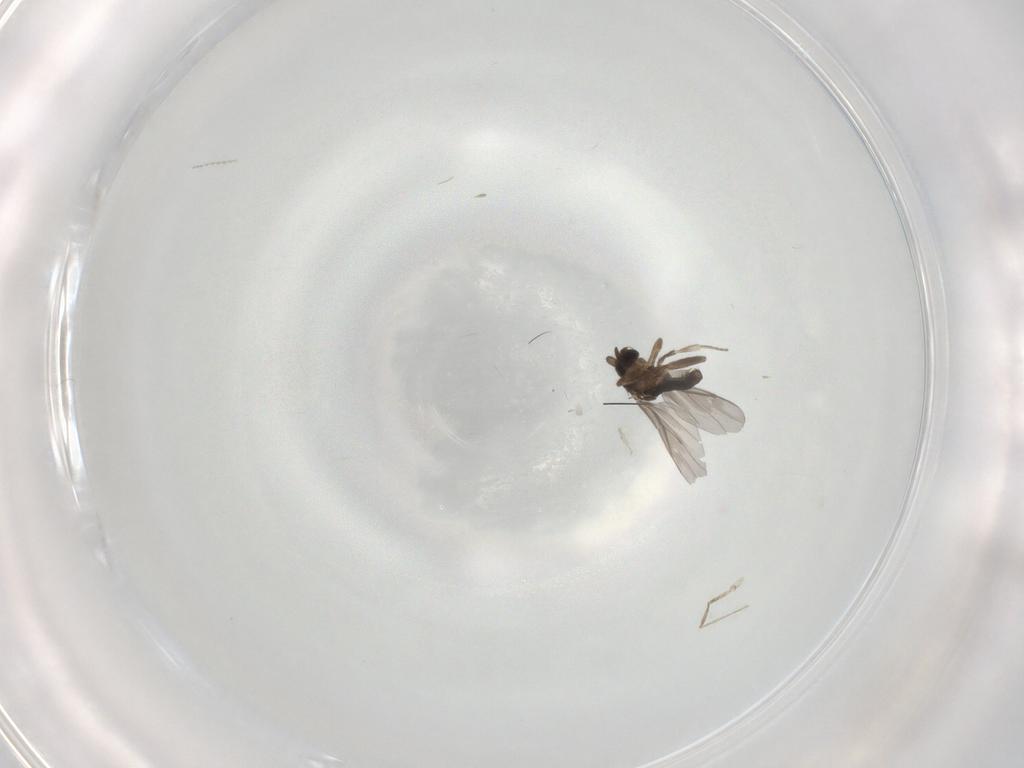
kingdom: Animalia
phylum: Arthropoda
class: Insecta
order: Diptera
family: Cecidomyiidae
